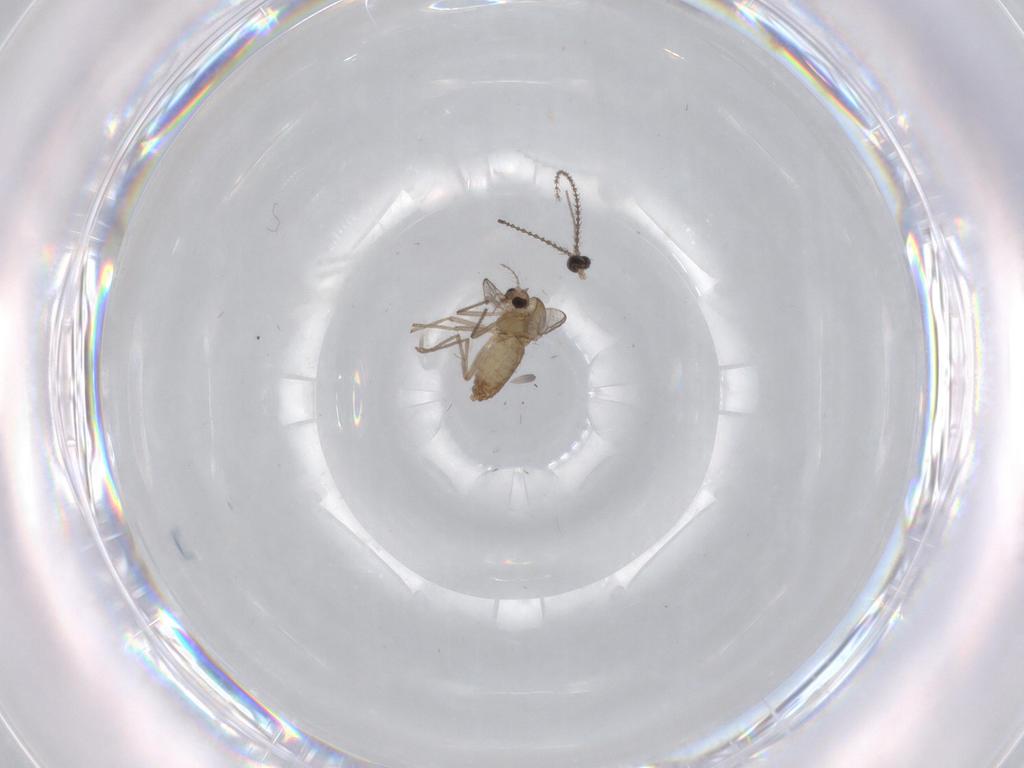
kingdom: Animalia
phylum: Arthropoda
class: Insecta
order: Diptera
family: Chironomidae
